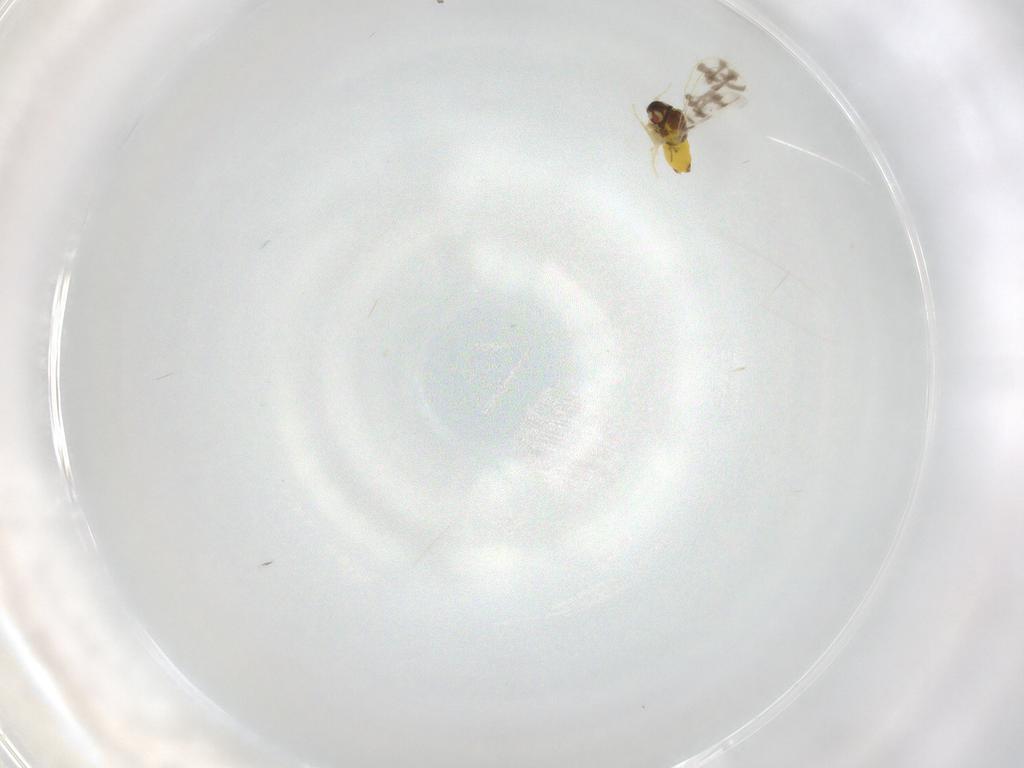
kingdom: Animalia
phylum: Arthropoda
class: Insecta
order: Hemiptera
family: Aleyrodidae
